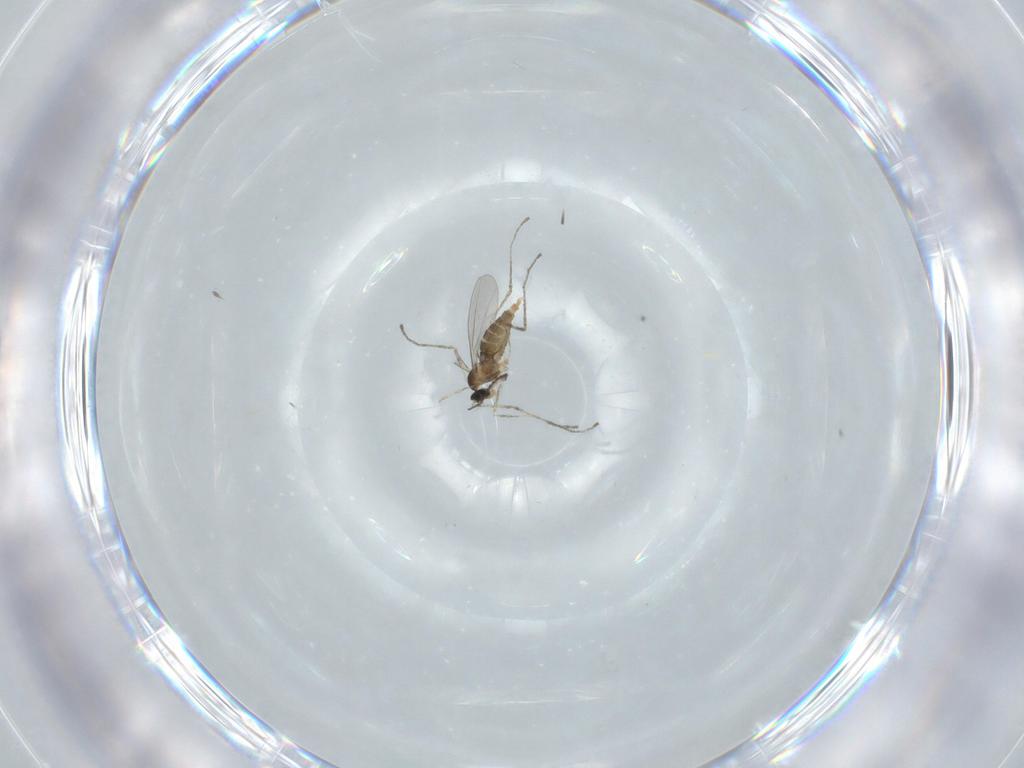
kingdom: Animalia
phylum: Arthropoda
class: Insecta
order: Diptera
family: Cecidomyiidae
